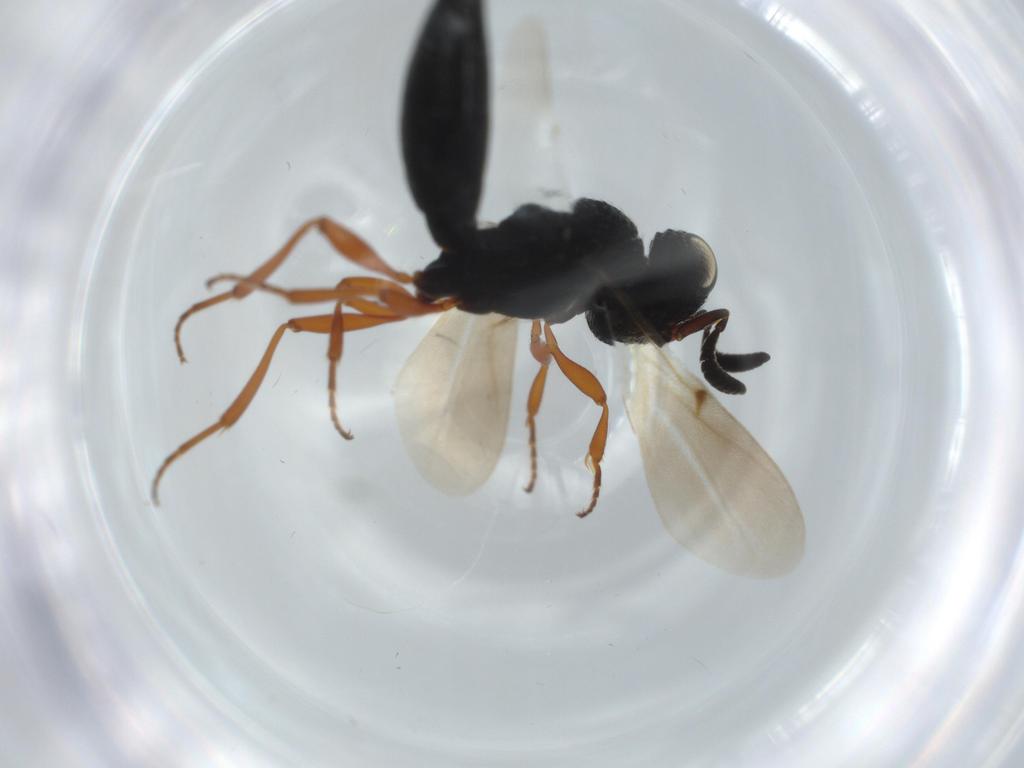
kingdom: Animalia
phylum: Arthropoda
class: Insecta
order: Hymenoptera
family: Scelionidae
